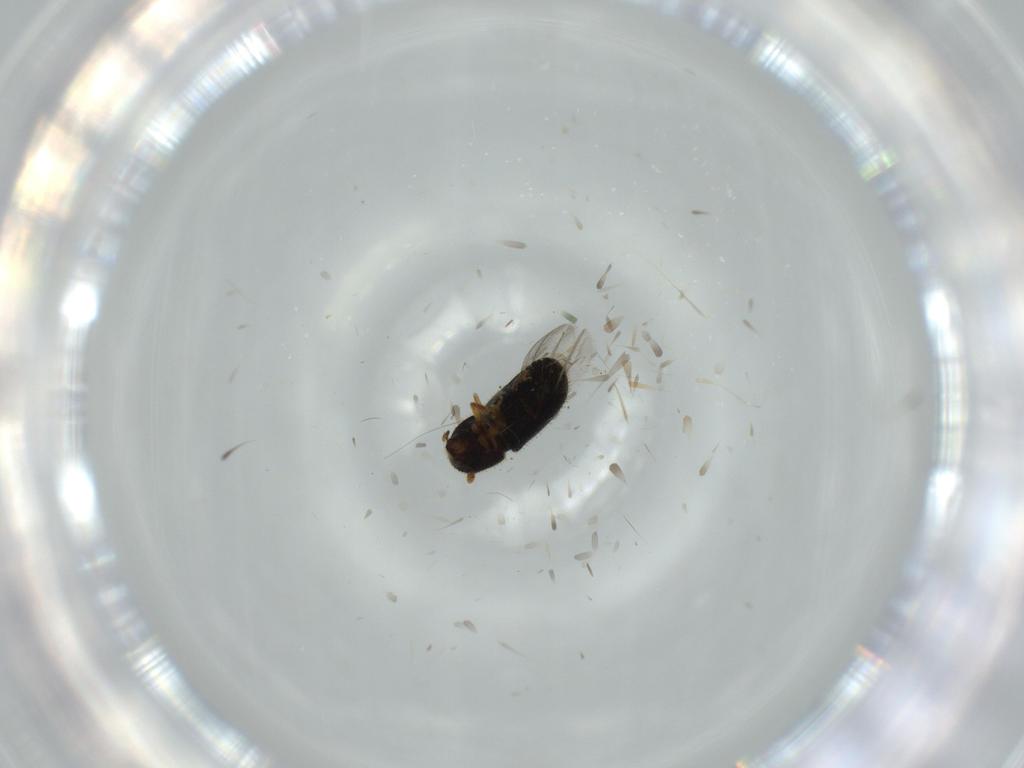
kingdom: Animalia
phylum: Arthropoda
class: Insecta
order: Coleoptera
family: Curculionidae
